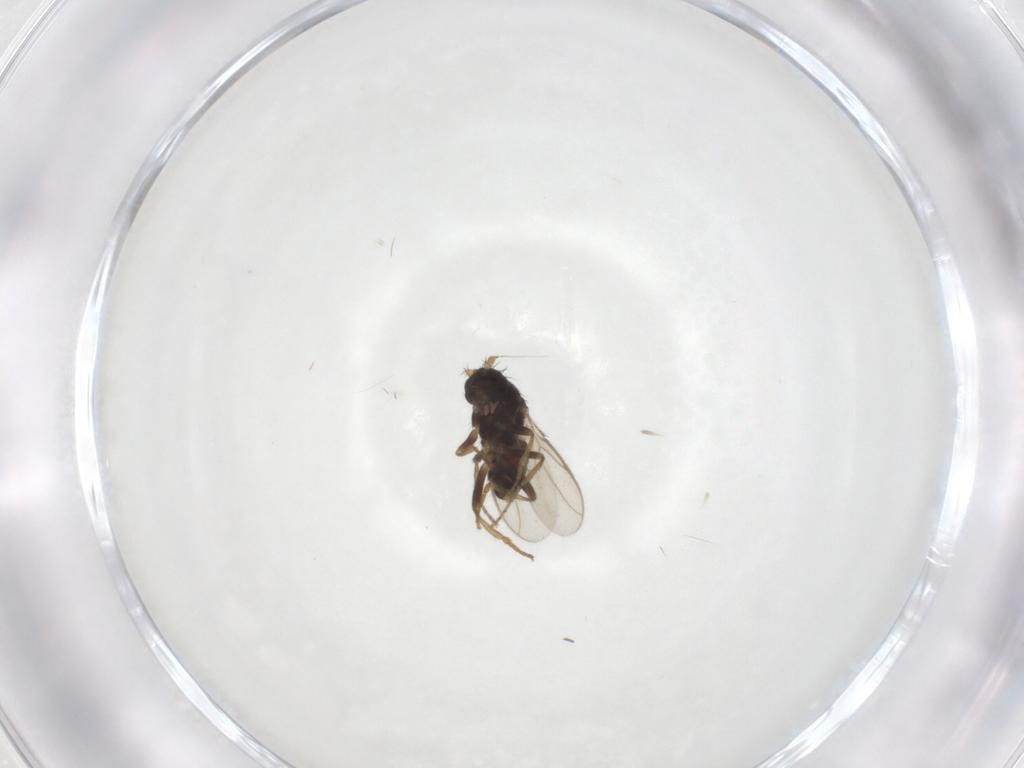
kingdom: Animalia
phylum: Arthropoda
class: Insecta
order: Diptera
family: Sphaeroceridae
